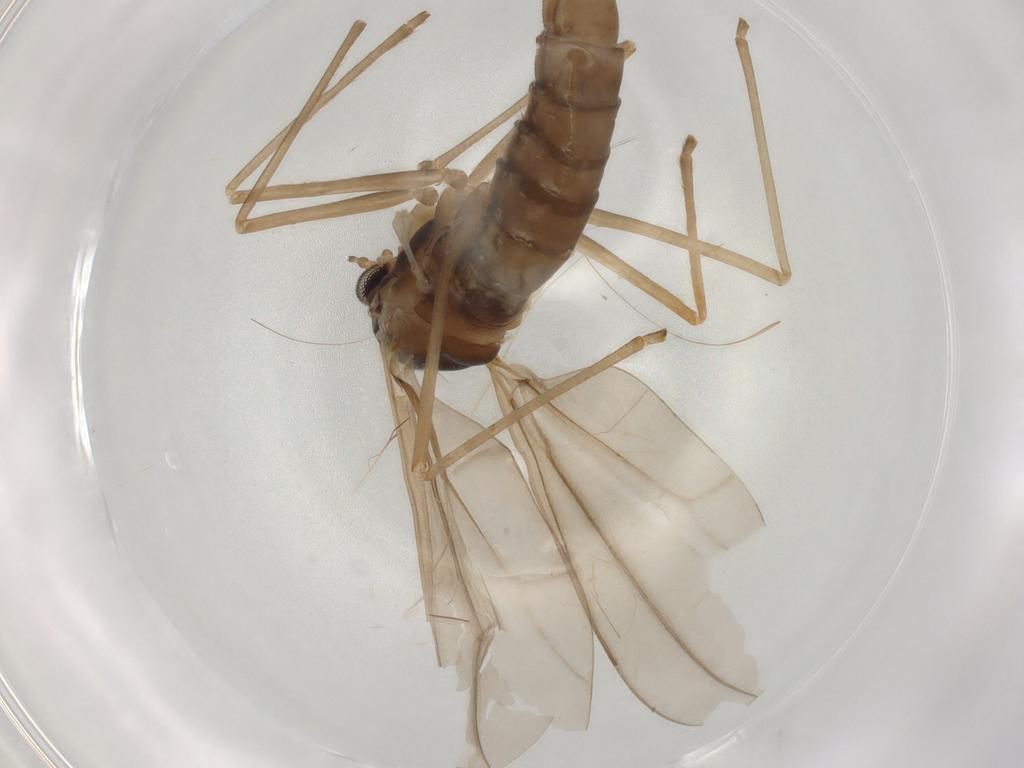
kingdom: Animalia
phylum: Arthropoda
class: Insecta
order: Diptera
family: Cecidomyiidae
